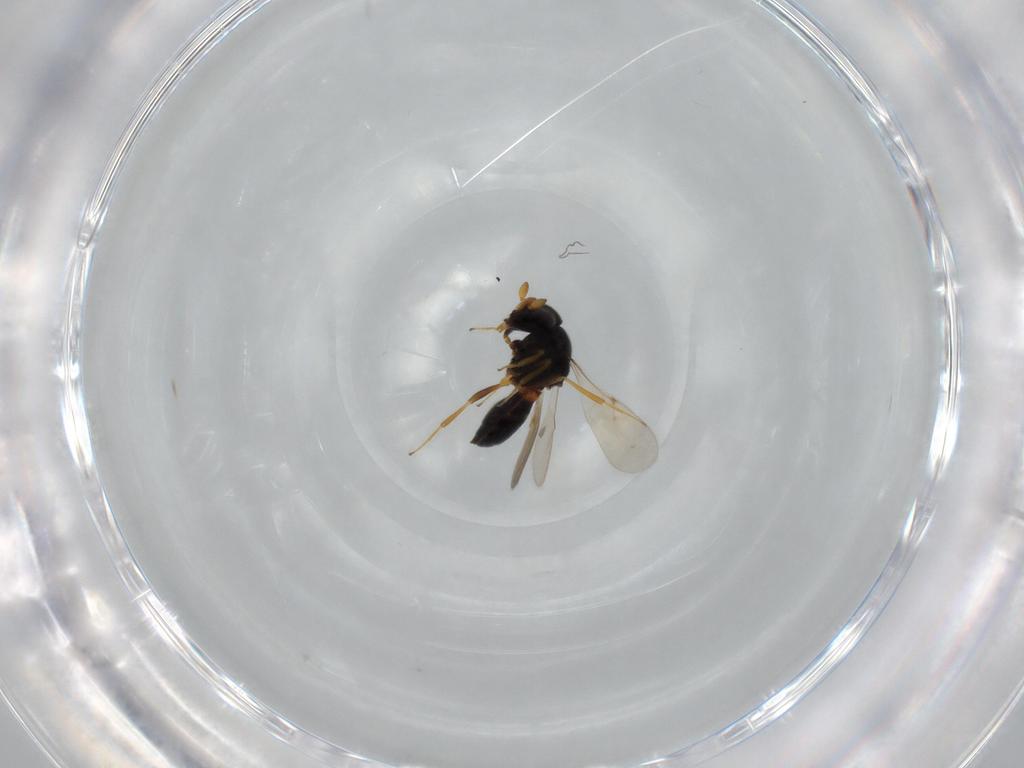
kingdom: Animalia
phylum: Arthropoda
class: Insecta
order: Hymenoptera
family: Scelionidae
